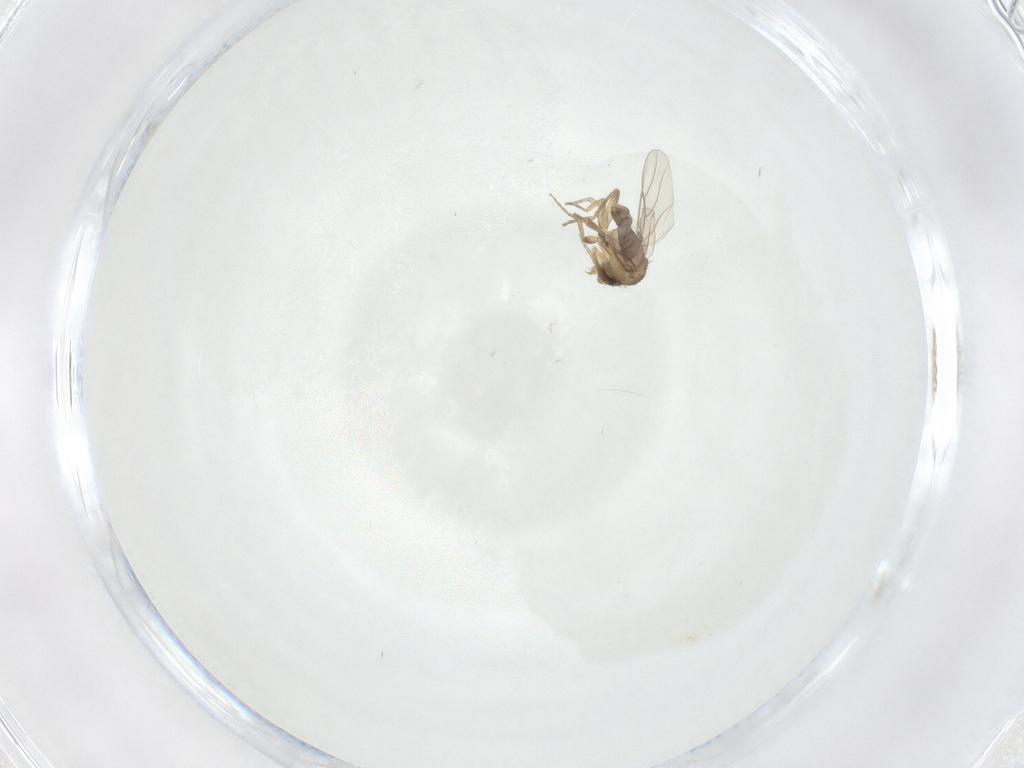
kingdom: Animalia
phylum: Arthropoda
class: Insecta
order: Diptera
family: Phoridae
